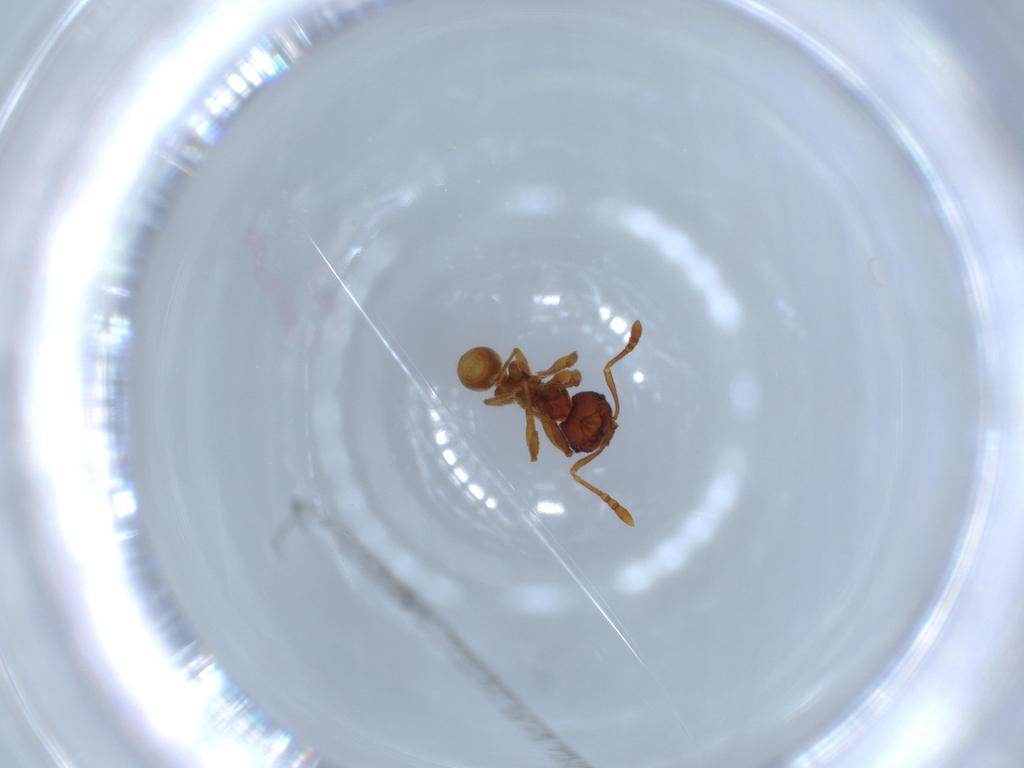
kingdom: Animalia
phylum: Arthropoda
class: Insecta
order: Hymenoptera
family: Formicidae
